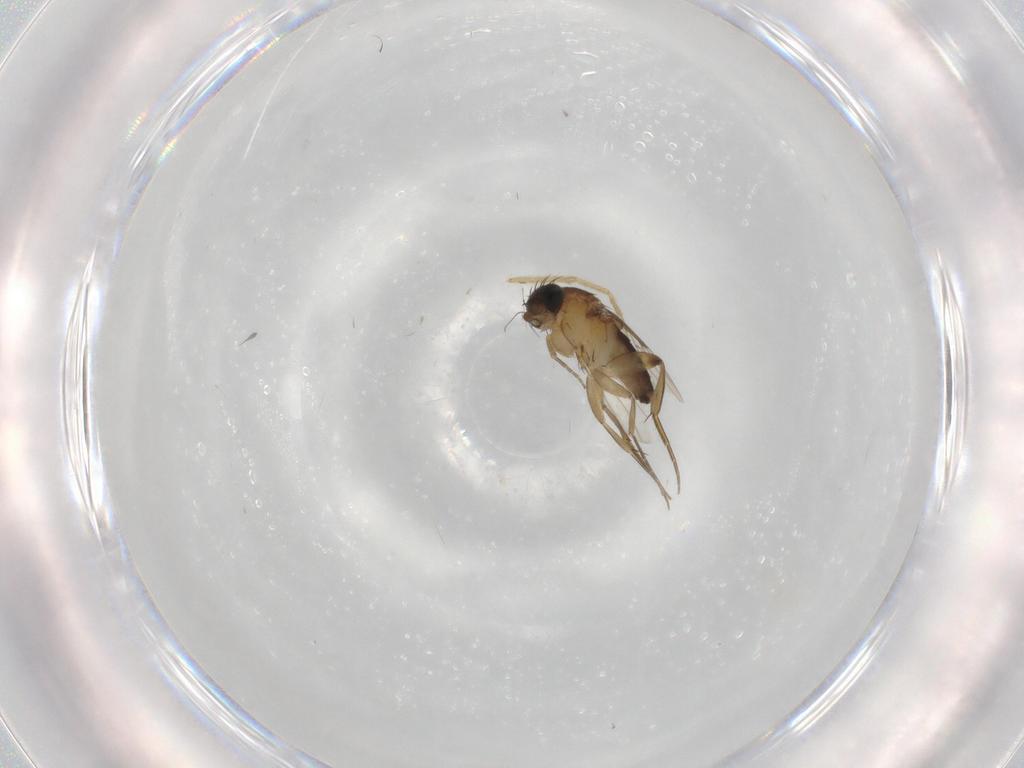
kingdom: Animalia
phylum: Arthropoda
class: Insecta
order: Diptera
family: Phoridae
